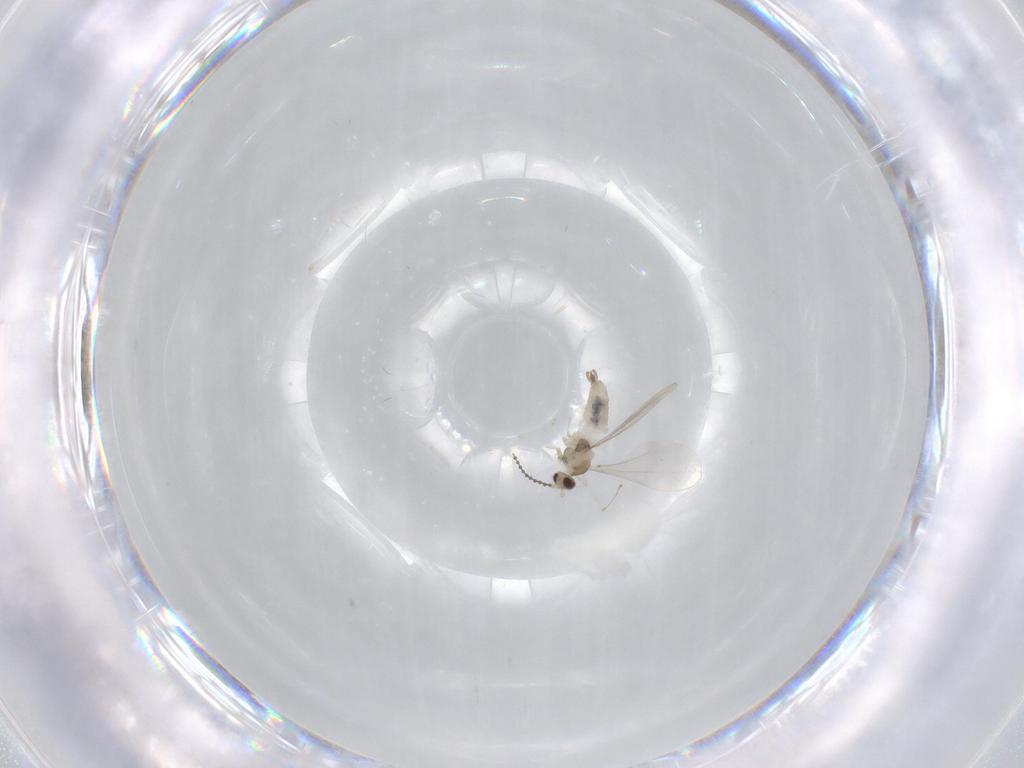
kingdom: Animalia
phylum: Arthropoda
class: Insecta
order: Diptera
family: Cecidomyiidae
